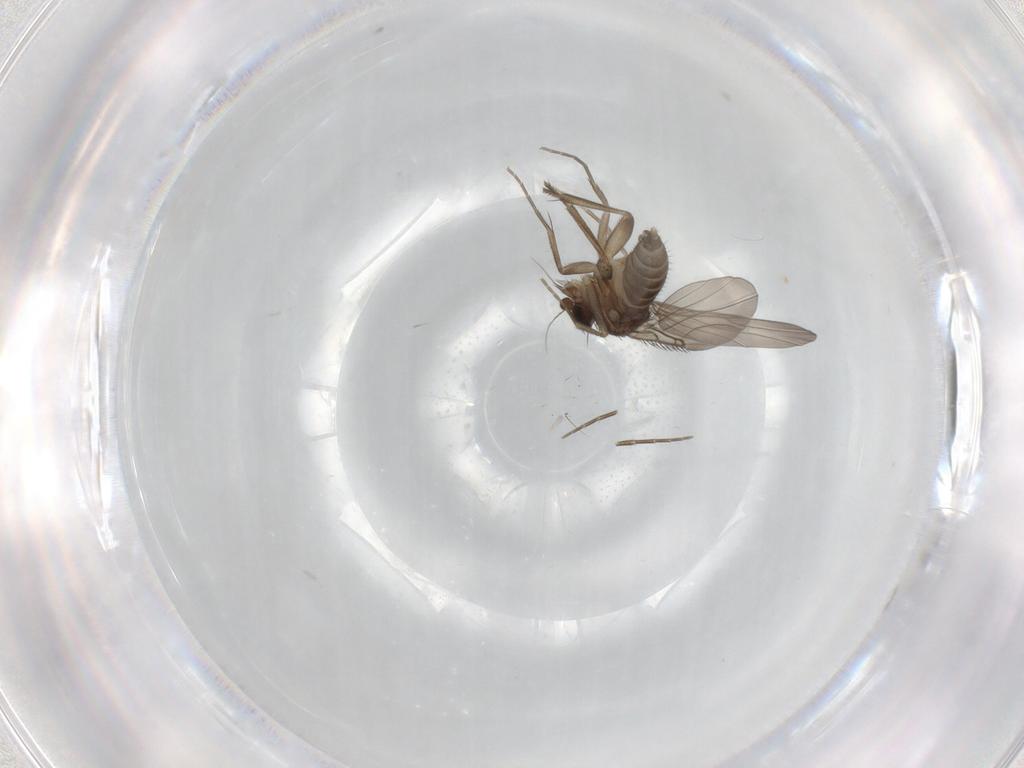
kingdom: Animalia
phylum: Arthropoda
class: Insecta
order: Diptera
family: Phoridae
